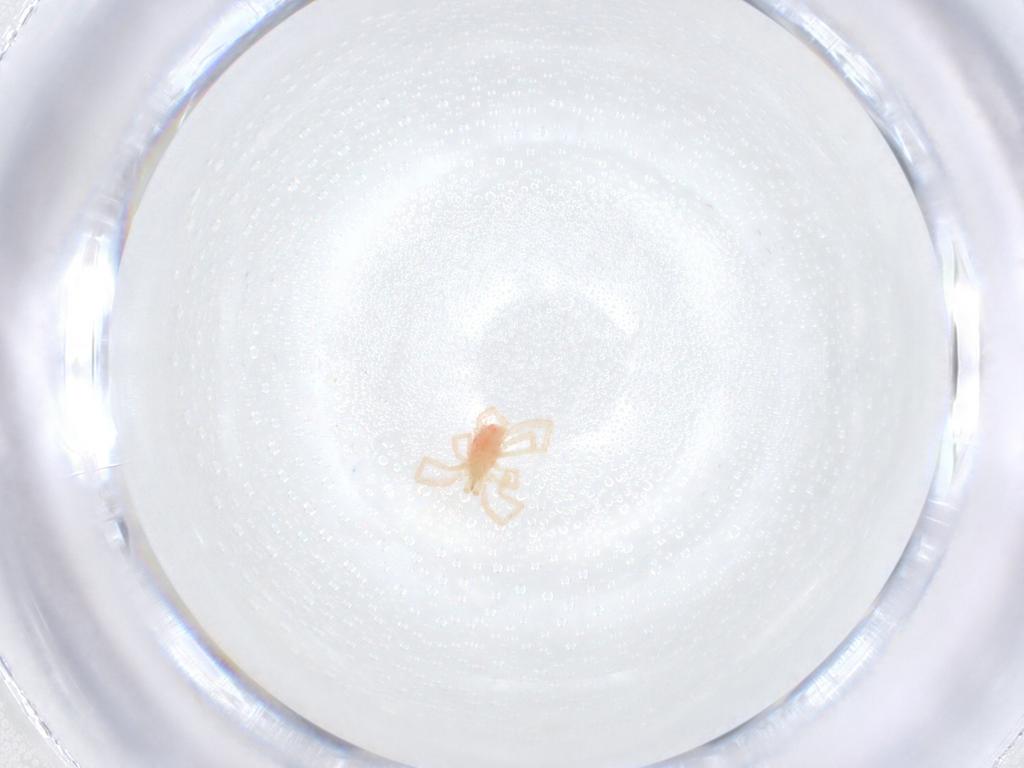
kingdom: Animalia
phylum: Arthropoda
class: Arachnida
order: Trombidiformes
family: Erythraeidae
